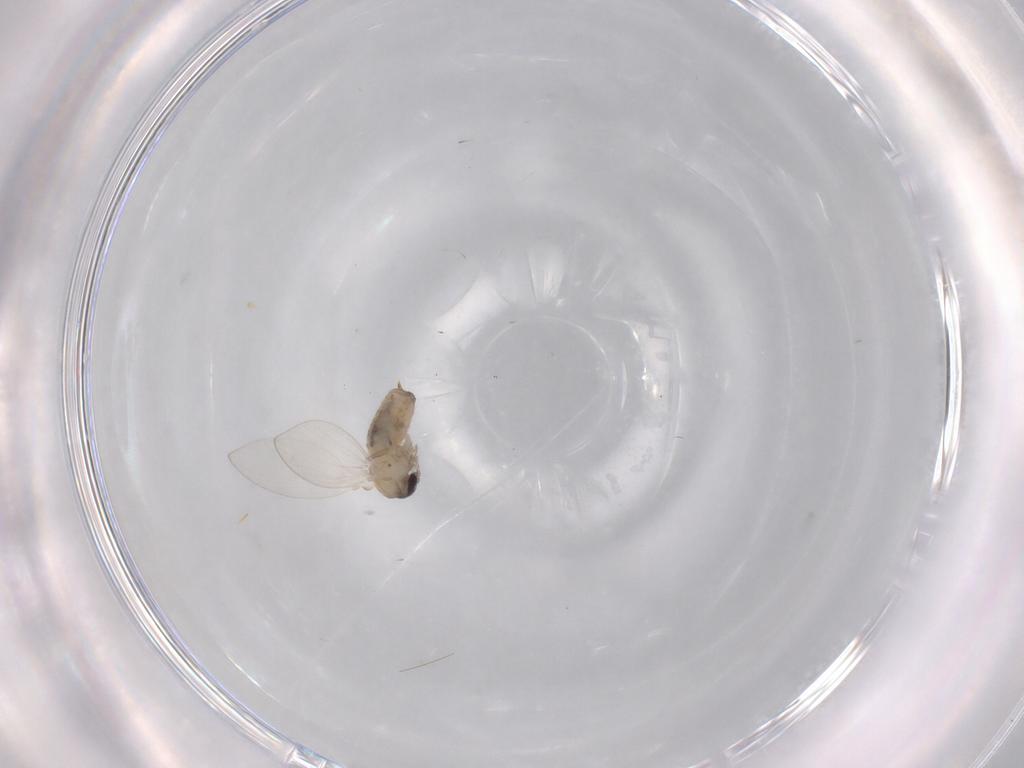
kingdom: Animalia
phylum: Arthropoda
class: Insecta
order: Diptera
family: Psychodidae
